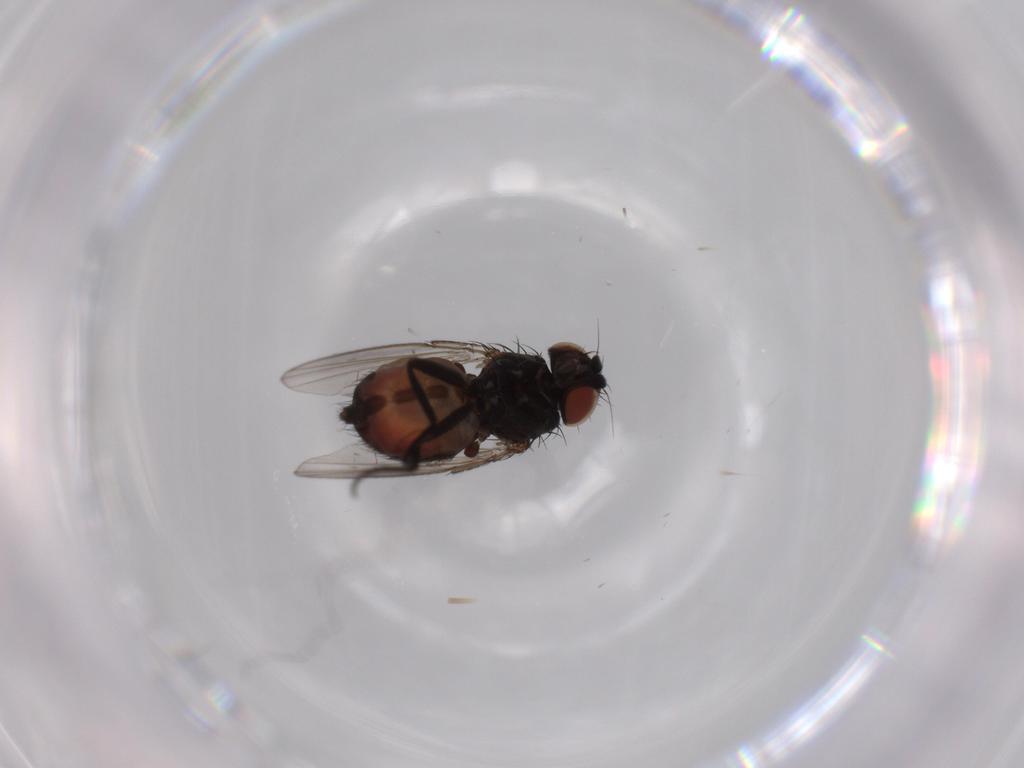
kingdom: Animalia
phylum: Arthropoda
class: Insecta
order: Diptera
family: Milichiidae
